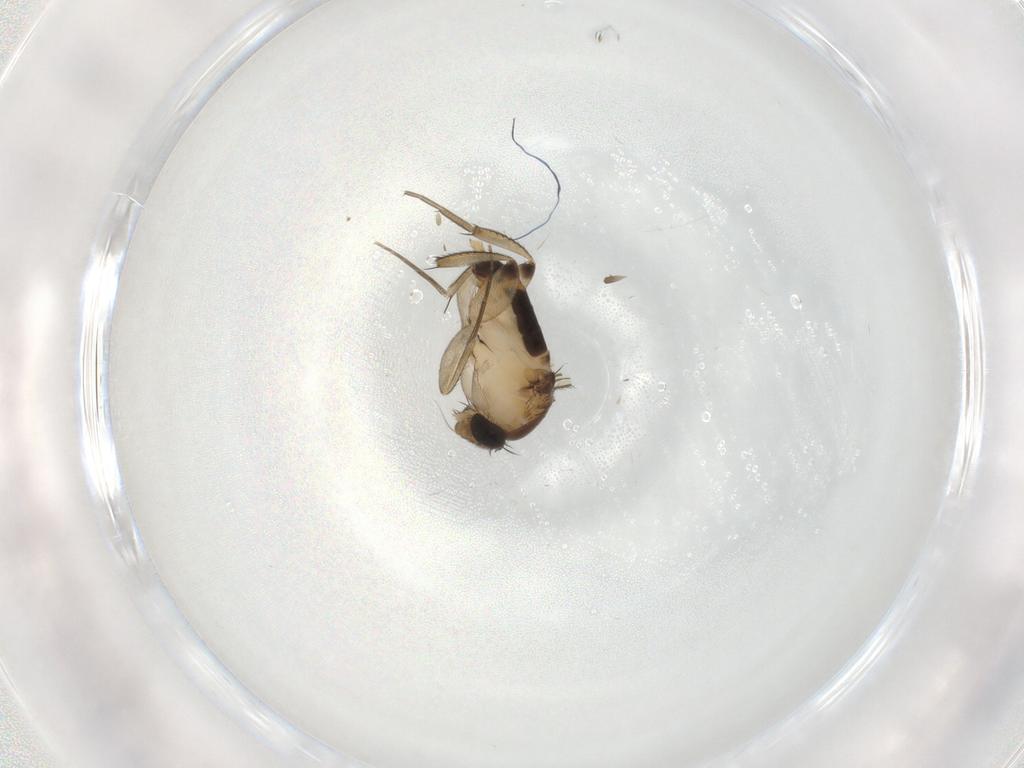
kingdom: Animalia
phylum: Arthropoda
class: Insecta
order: Diptera
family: Phoridae
